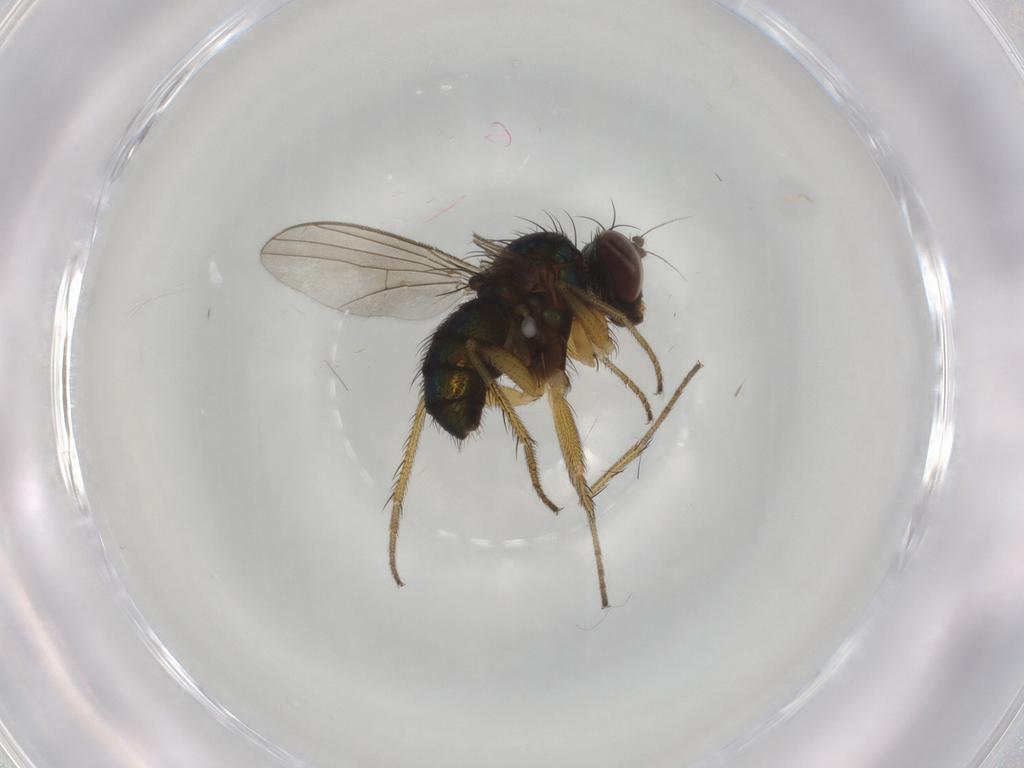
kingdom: Animalia
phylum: Arthropoda
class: Insecta
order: Diptera
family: Dolichopodidae
